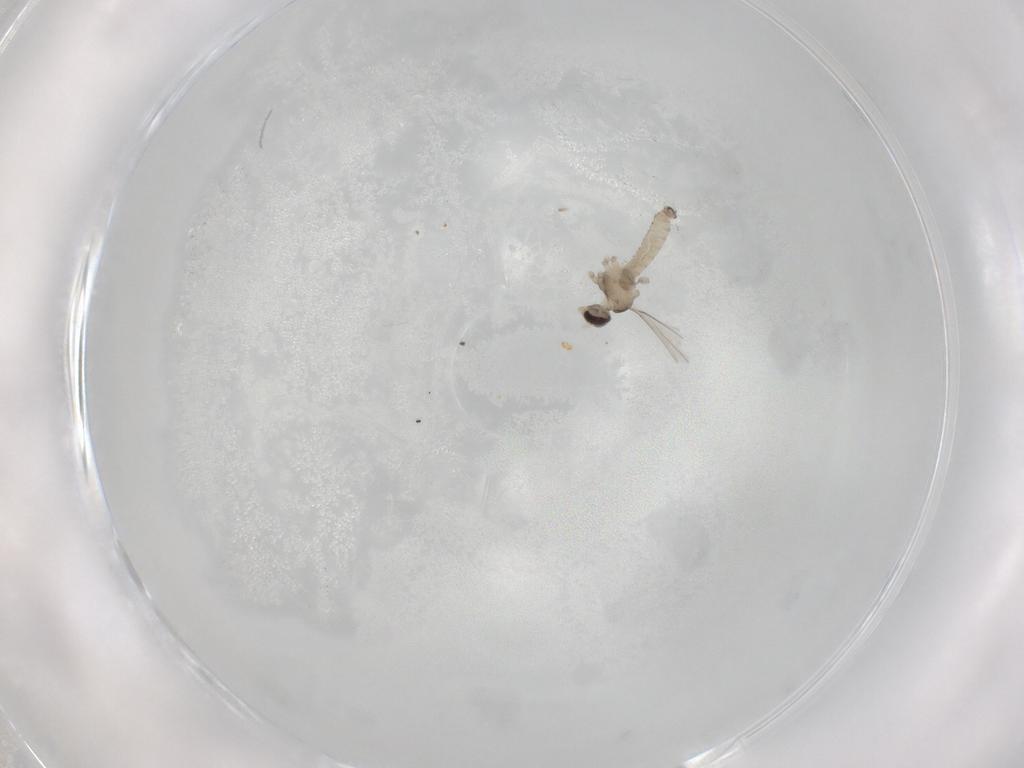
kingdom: Animalia
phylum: Arthropoda
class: Insecta
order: Diptera
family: Cecidomyiidae
